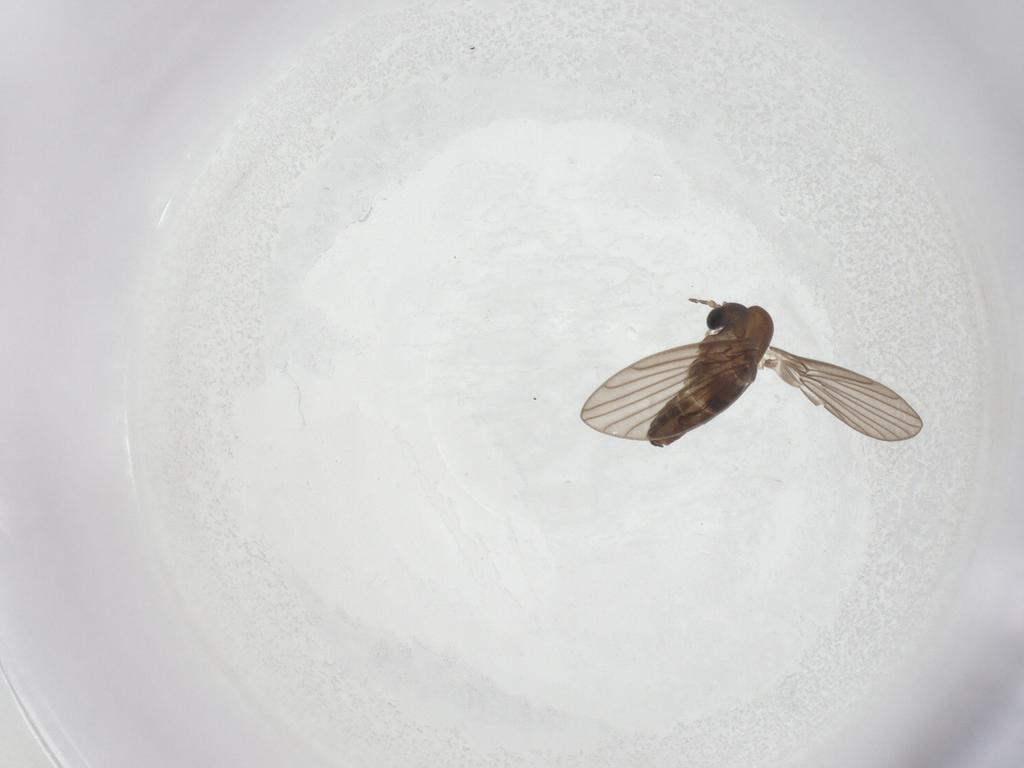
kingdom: Animalia
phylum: Arthropoda
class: Insecta
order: Diptera
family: Psychodidae
